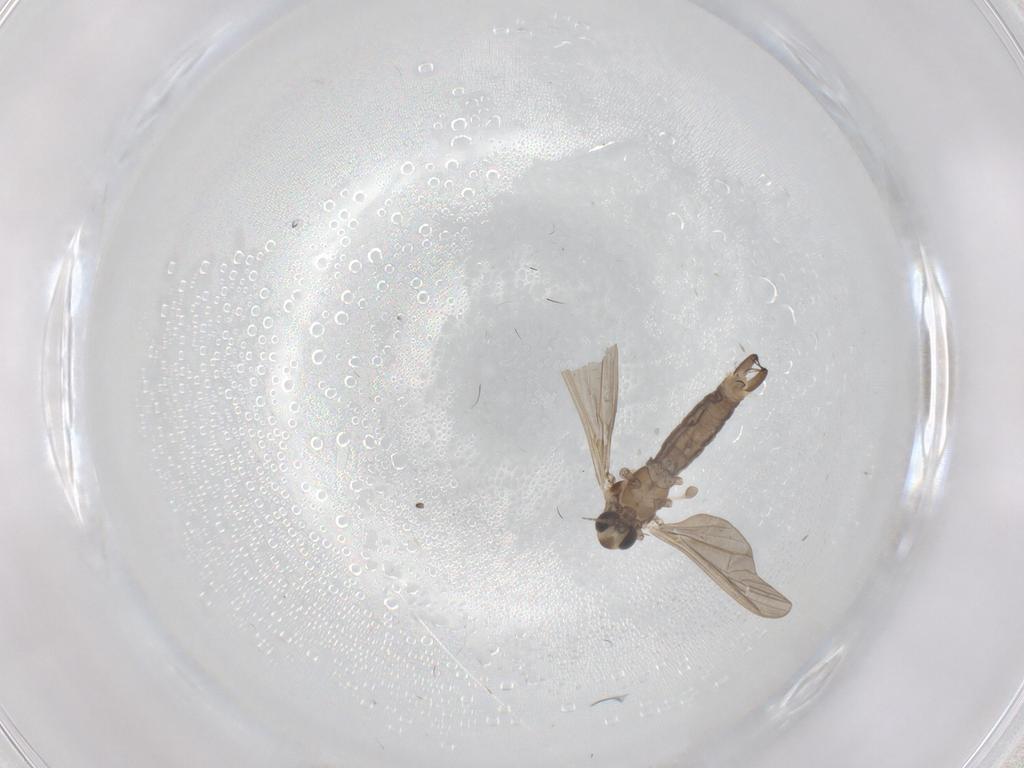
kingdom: Animalia
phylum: Arthropoda
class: Insecta
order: Diptera
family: Limoniidae
